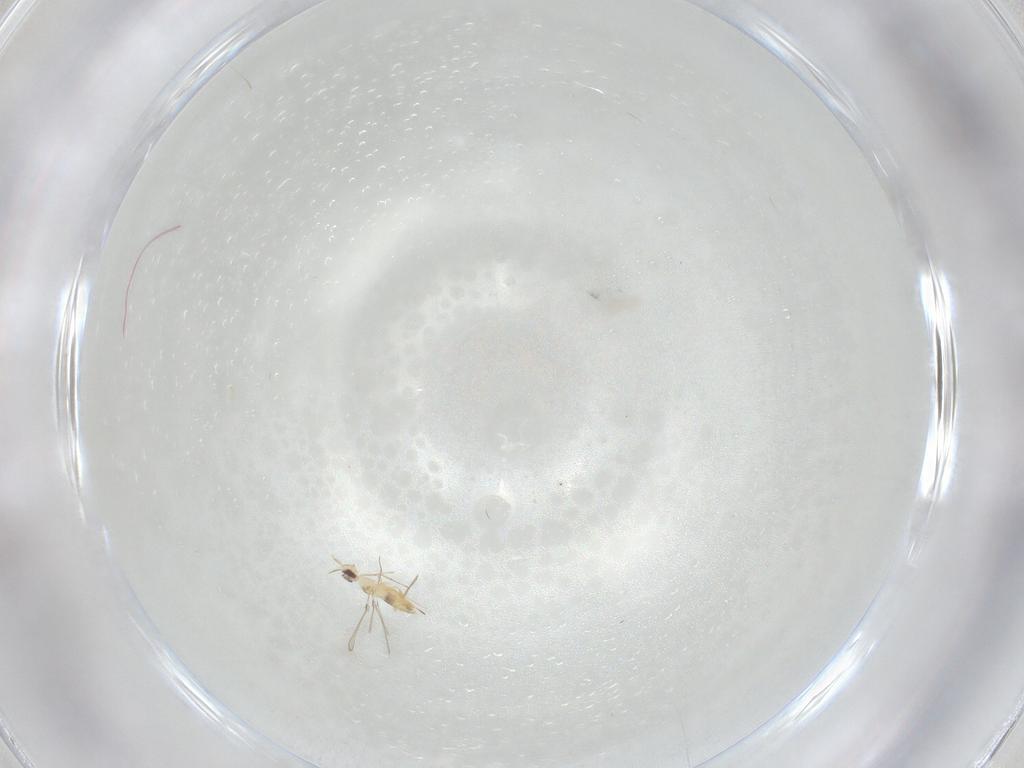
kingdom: Animalia
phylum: Arthropoda
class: Insecta
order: Hymenoptera
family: Mymaridae
